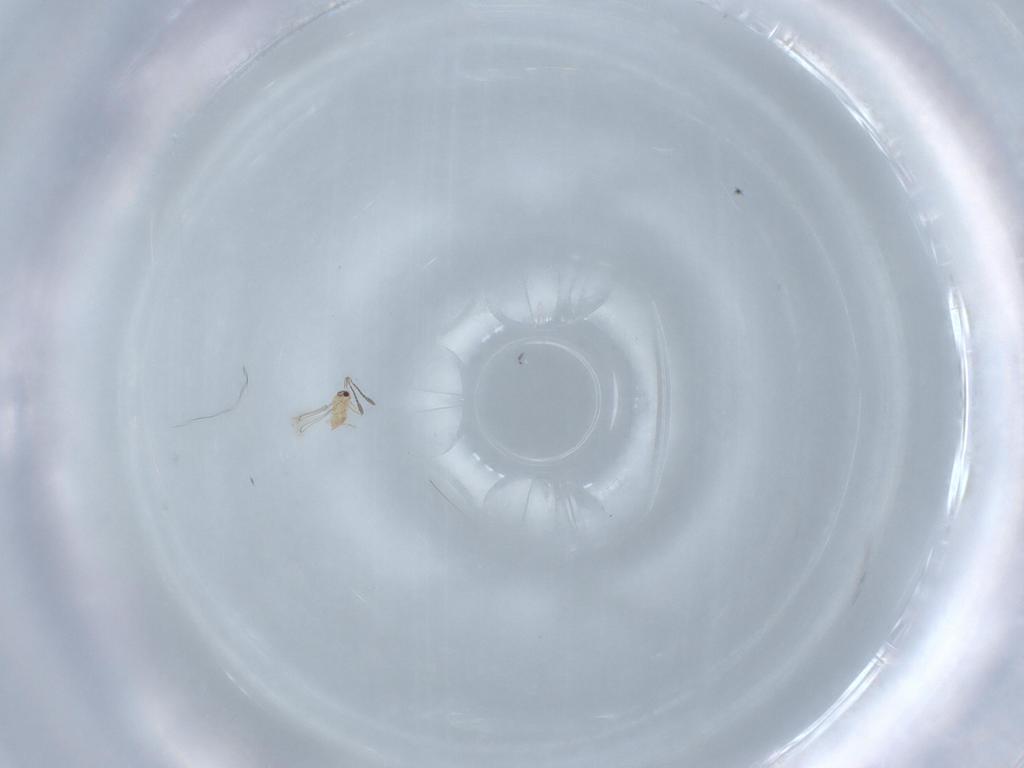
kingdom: Animalia
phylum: Arthropoda
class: Insecta
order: Hymenoptera
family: Mymaridae
